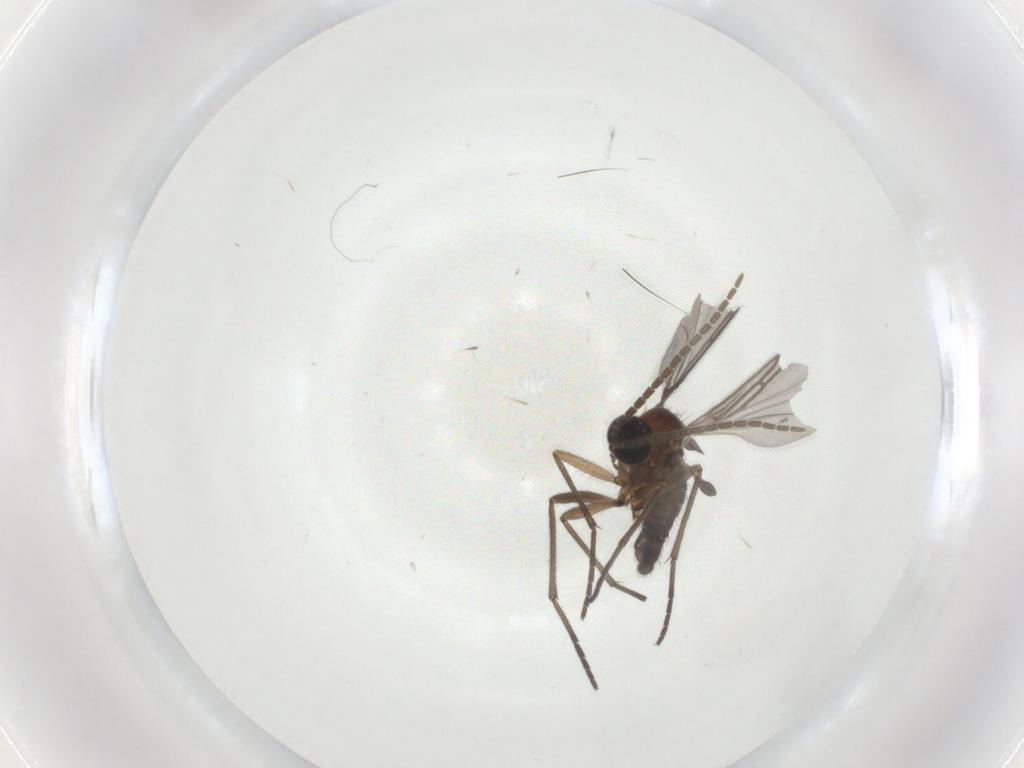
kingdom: Animalia
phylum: Arthropoda
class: Insecta
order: Diptera
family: Cecidomyiidae
